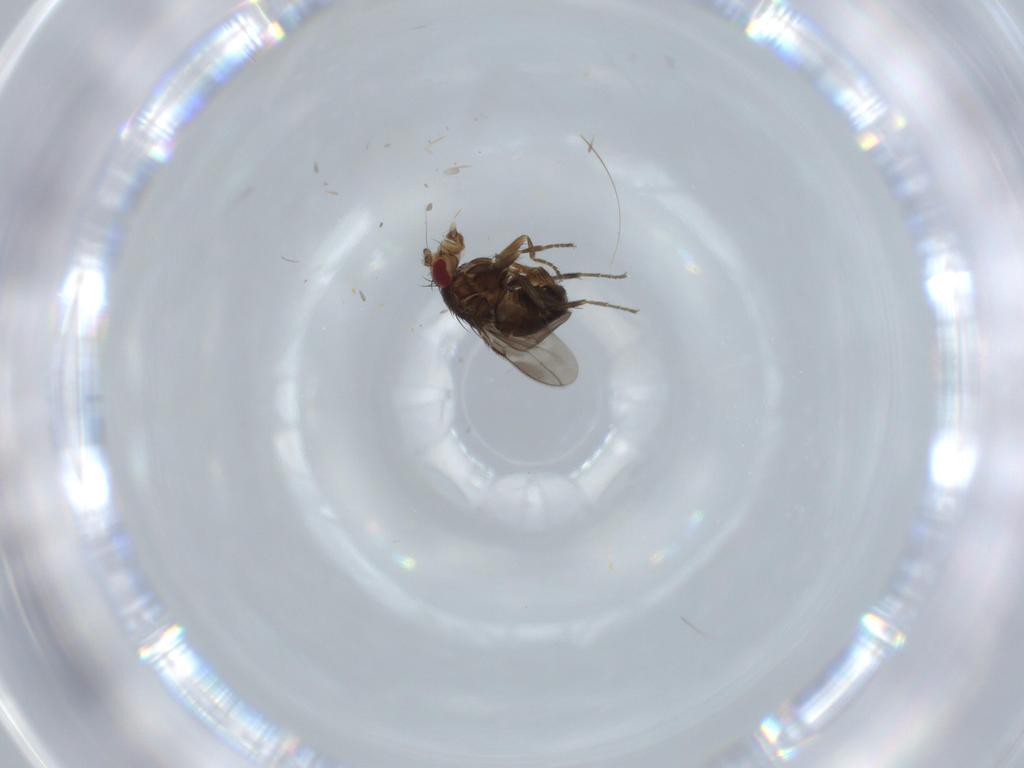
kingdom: Animalia
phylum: Arthropoda
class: Insecta
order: Diptera
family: Sphaeroceridae
